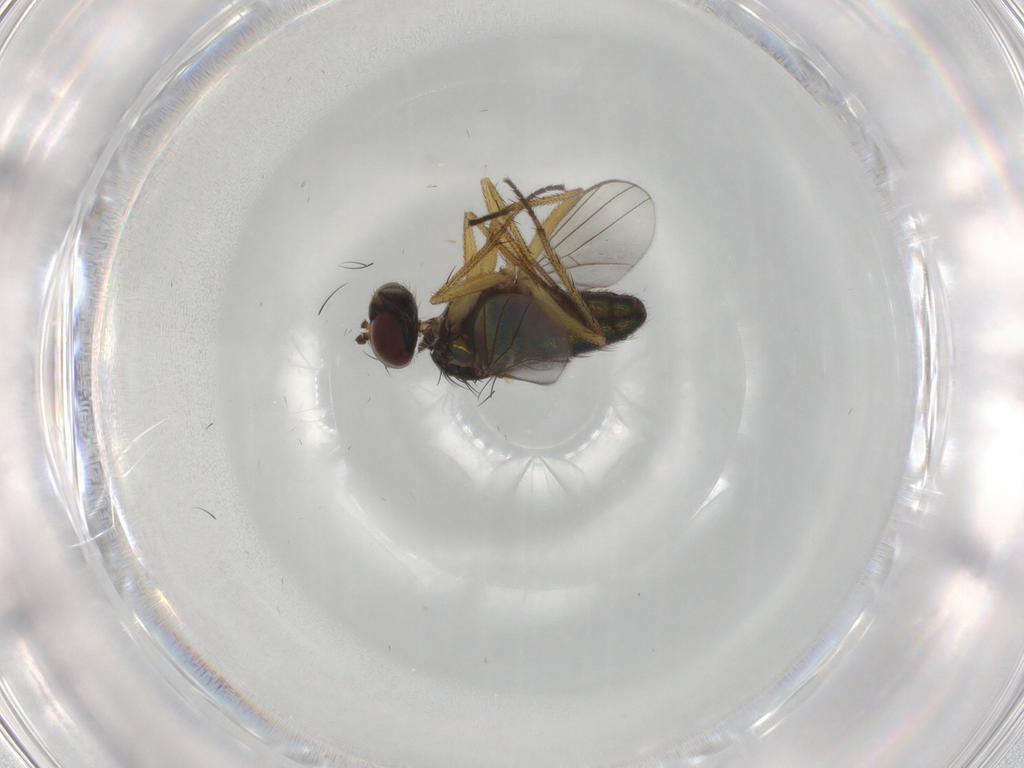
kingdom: Animalia
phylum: Arthropoda
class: Insecta
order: Diptera
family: Dolichopodidae
